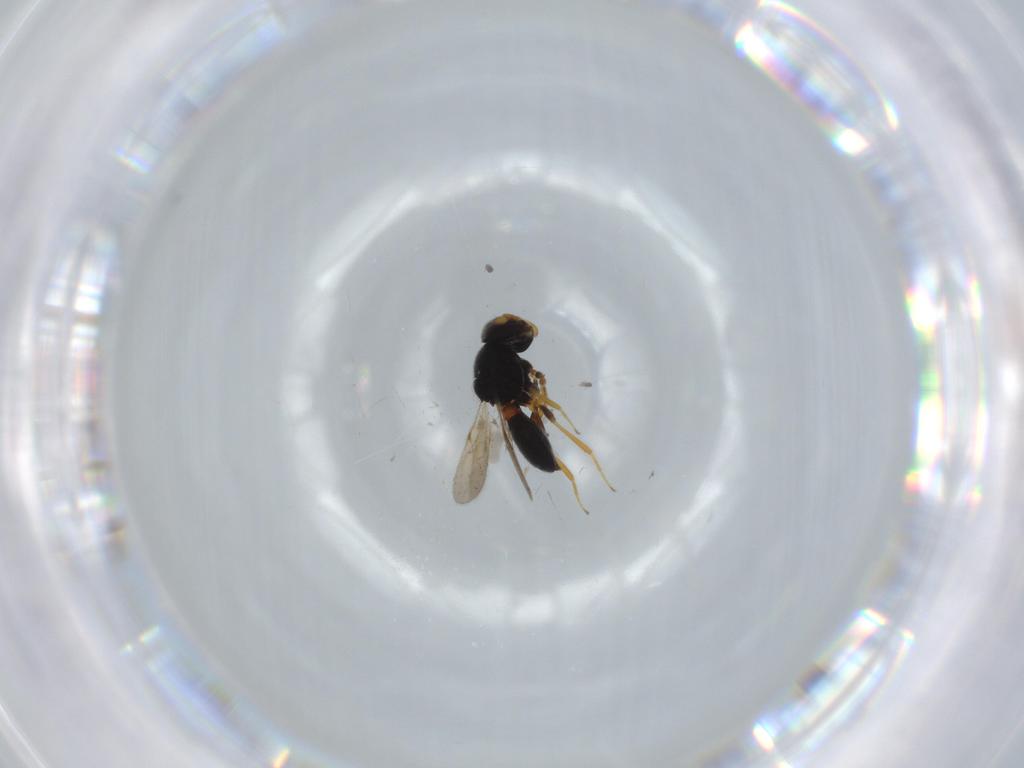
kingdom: Animalia
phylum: Arthropoda
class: Insecta
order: Hymenoptera
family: Scelionidae
